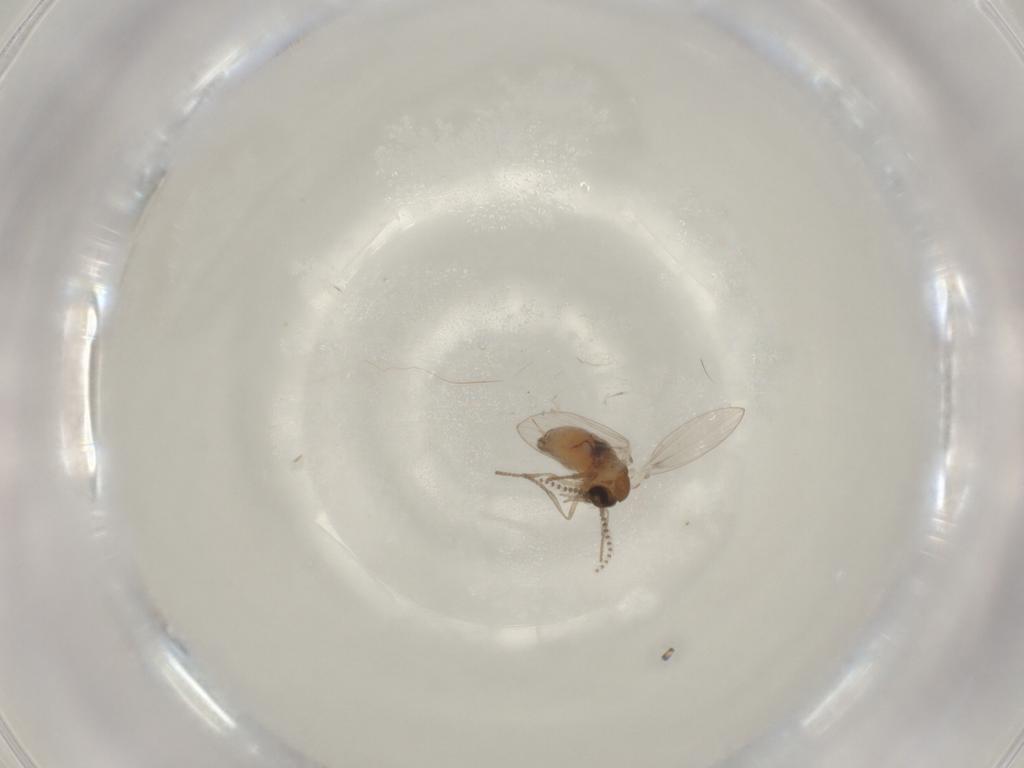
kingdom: Animalia
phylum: Arthropoda
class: Insecta
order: Diptera
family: Psychodidae
